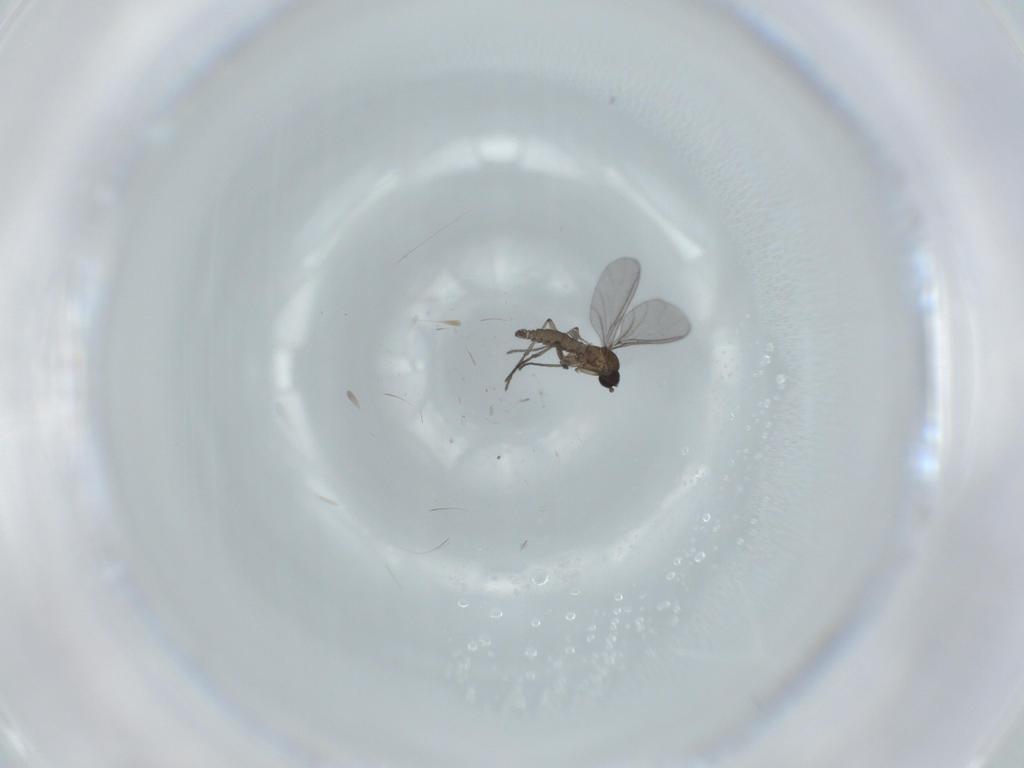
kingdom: Animalia
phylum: Arthropoda
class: Insecta
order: Diptera
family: Sciaridae
